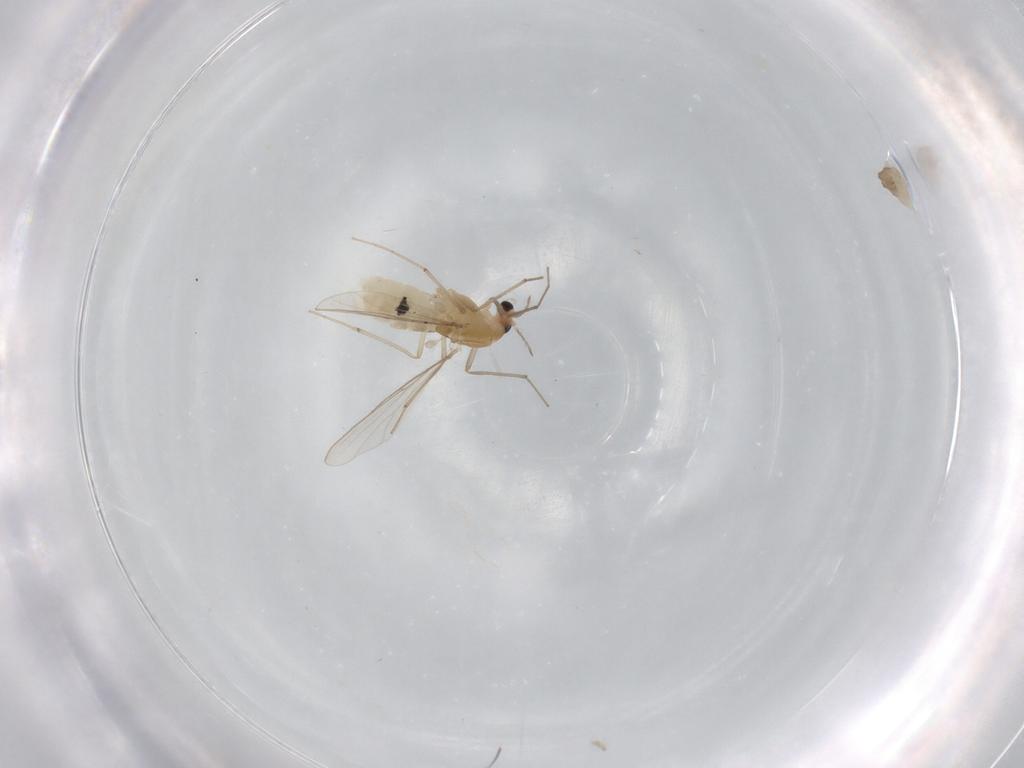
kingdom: Animalia
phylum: Arthropoda
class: Insecta
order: Diptera
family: Chironomidae
